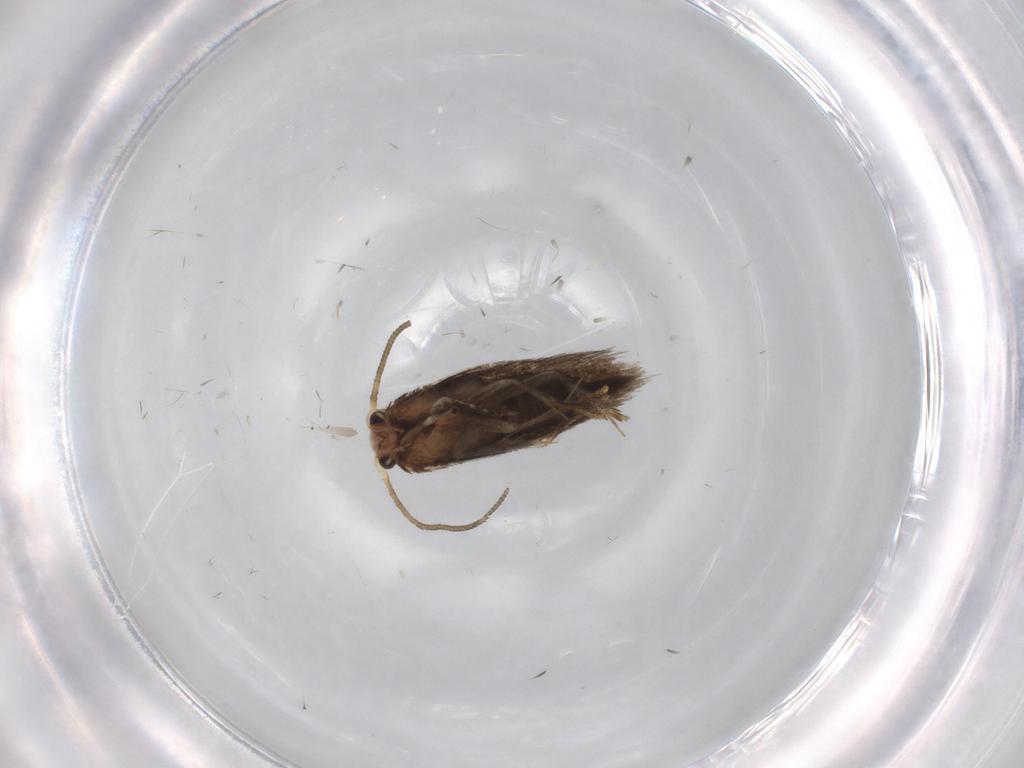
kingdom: Animalia
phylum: Arthropoda
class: Insecta
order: Lepidoptera
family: Nepticulidae
